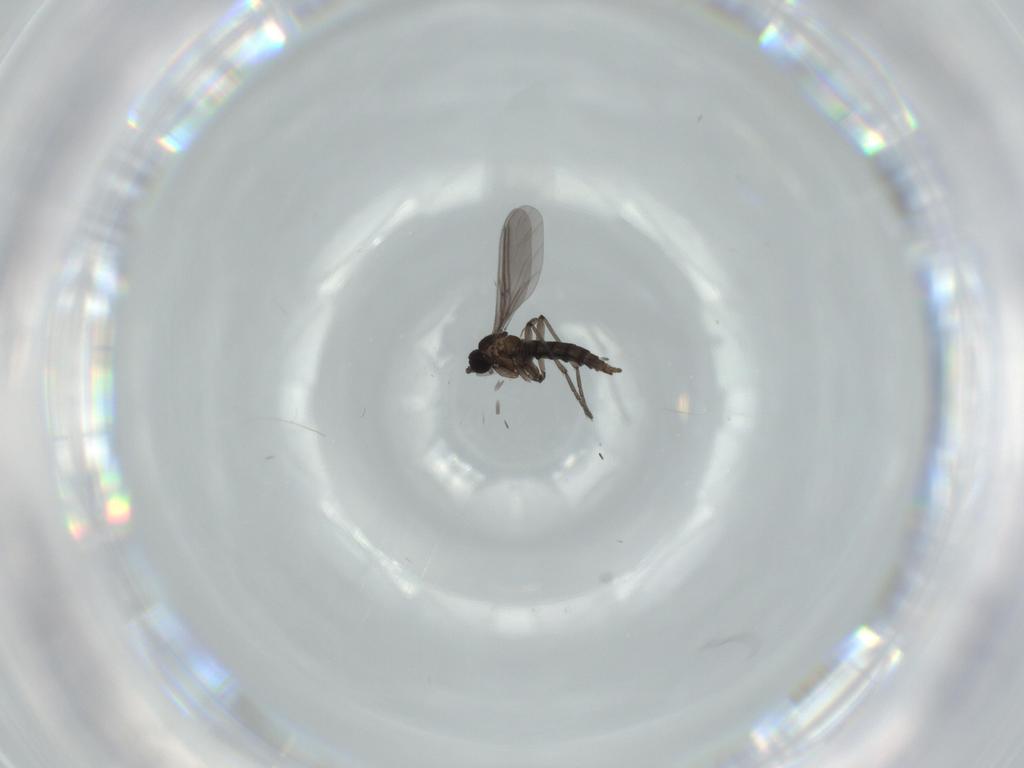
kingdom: Animalia
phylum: Arthropoda
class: Insecta
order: Diptera
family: Sciaridae
